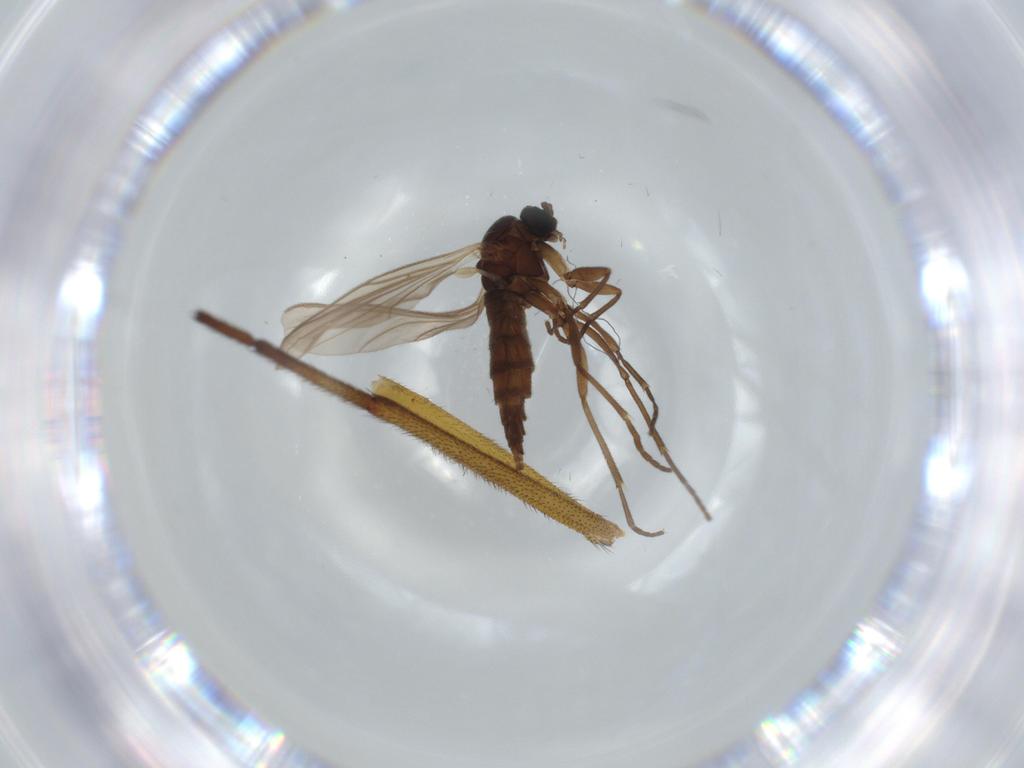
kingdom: Animalia
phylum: Arthropoda
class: Insecta
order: Diptera
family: Empididae
